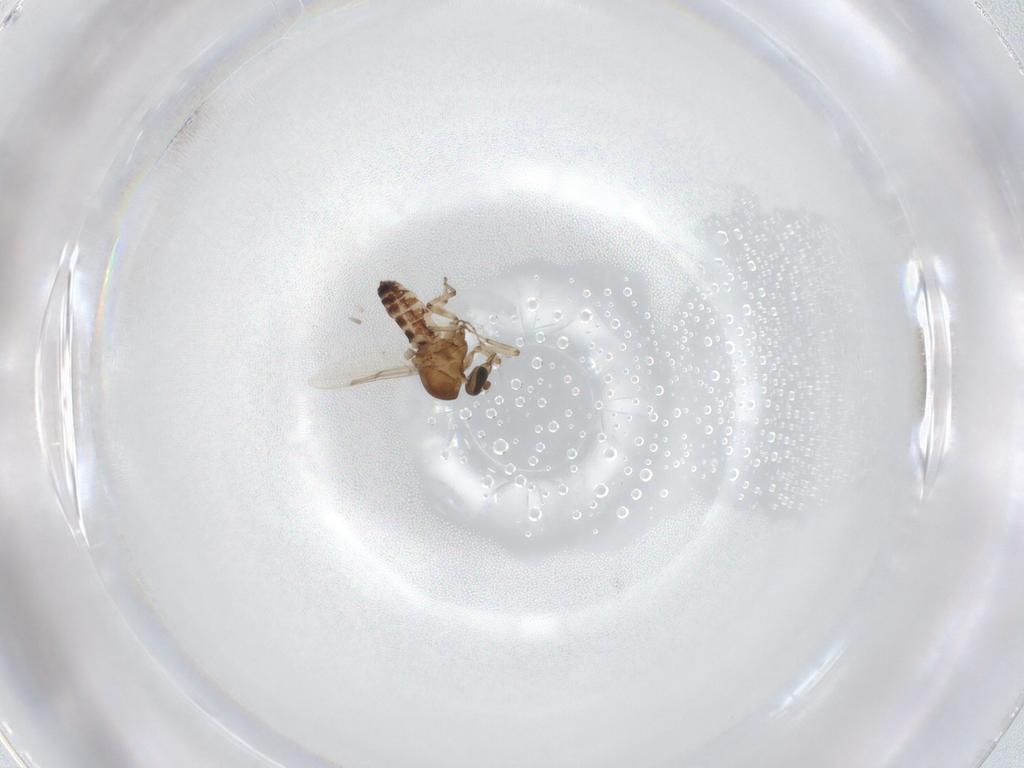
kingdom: Animalia
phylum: Arthropoda
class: Insecta
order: Diptera
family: Ceratopogonidae
